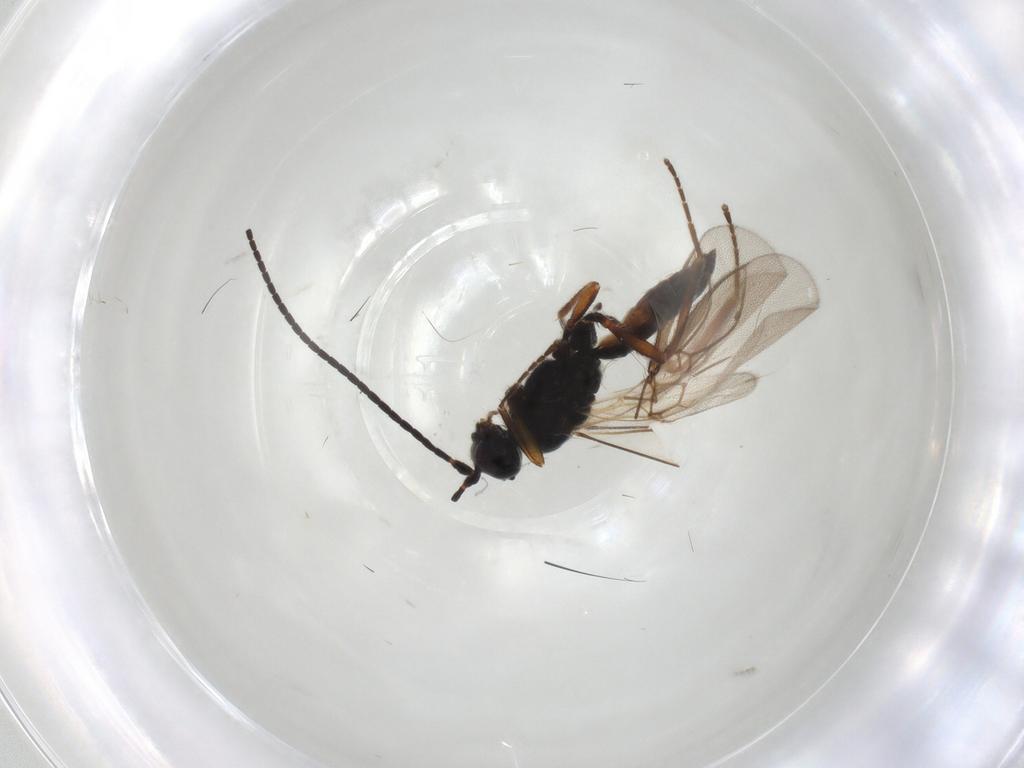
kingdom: Animalia
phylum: Arthropoda
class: Insecta
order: Hymenoptera
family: Braconidae
